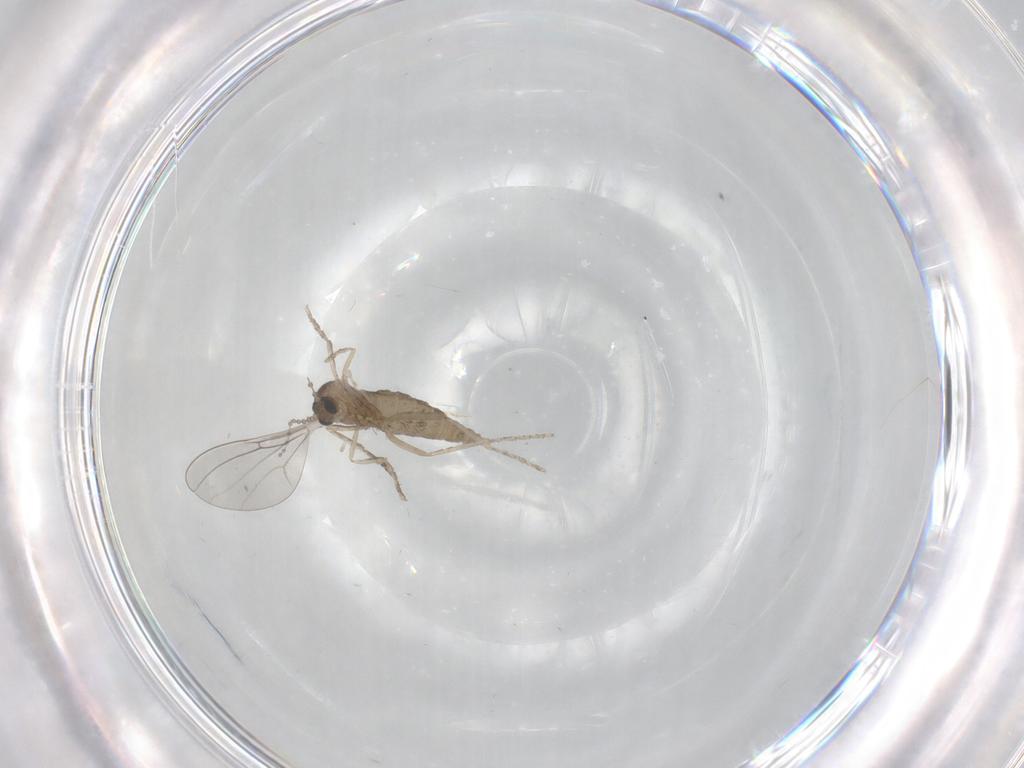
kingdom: Animalia
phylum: Arthropoda
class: Insecta
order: Diptera
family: Cecidomyiidae
